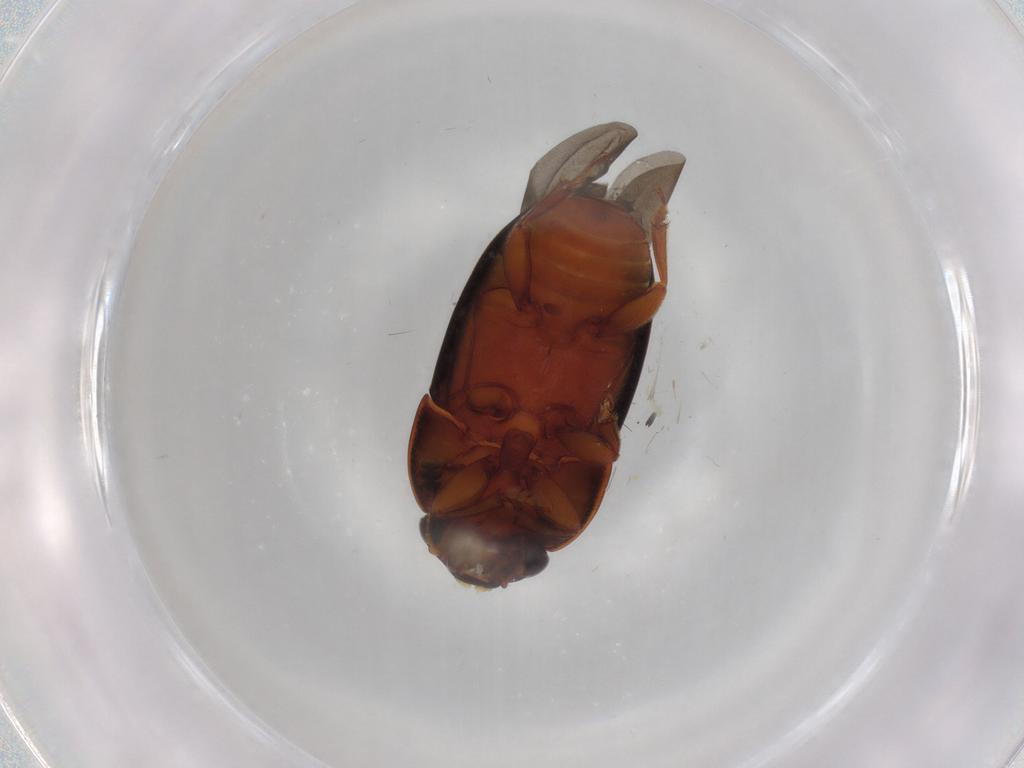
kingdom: Animalia
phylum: Arthropoda
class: Insecta
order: Coleoptera
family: Nitidulidae
